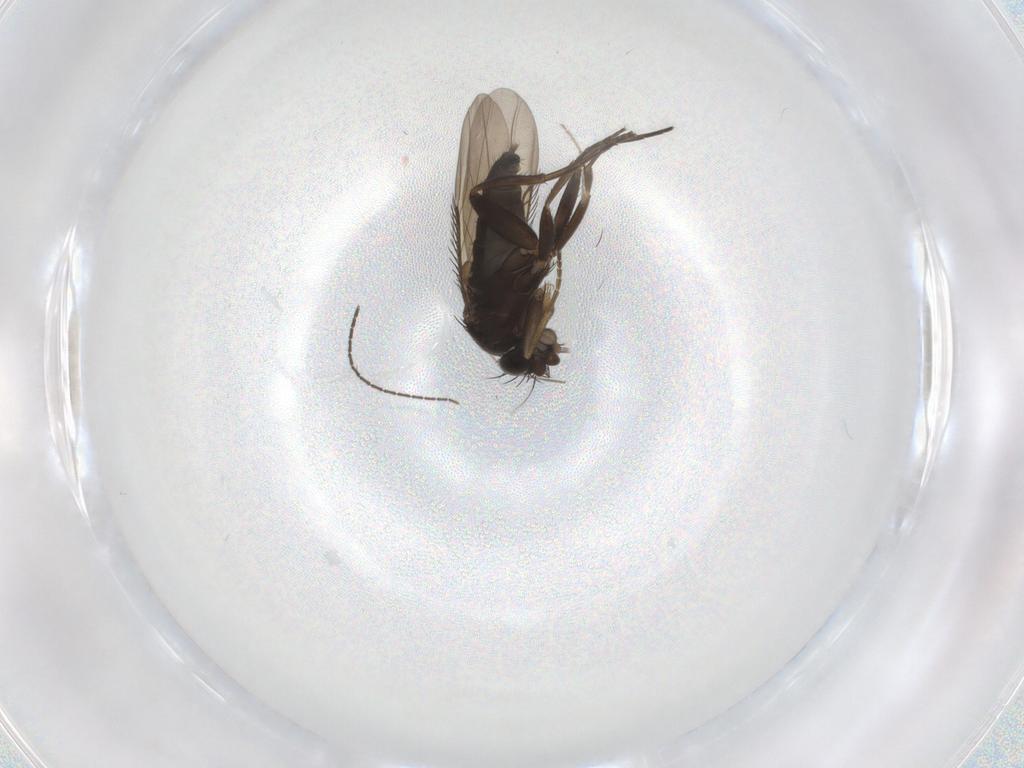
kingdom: Animalia
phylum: Arthropoda
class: Insecta
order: Diptera
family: Phoridae
